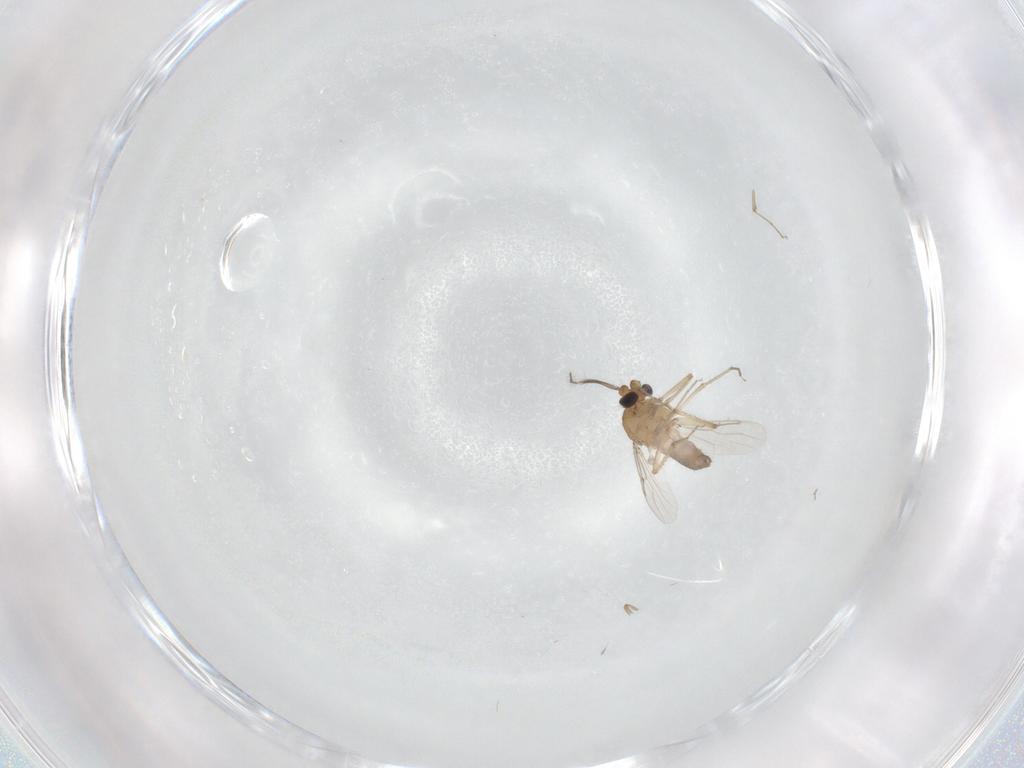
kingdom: Animalia
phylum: Arthropoda
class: Insecta
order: Diptera
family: Ceratopogonidae
